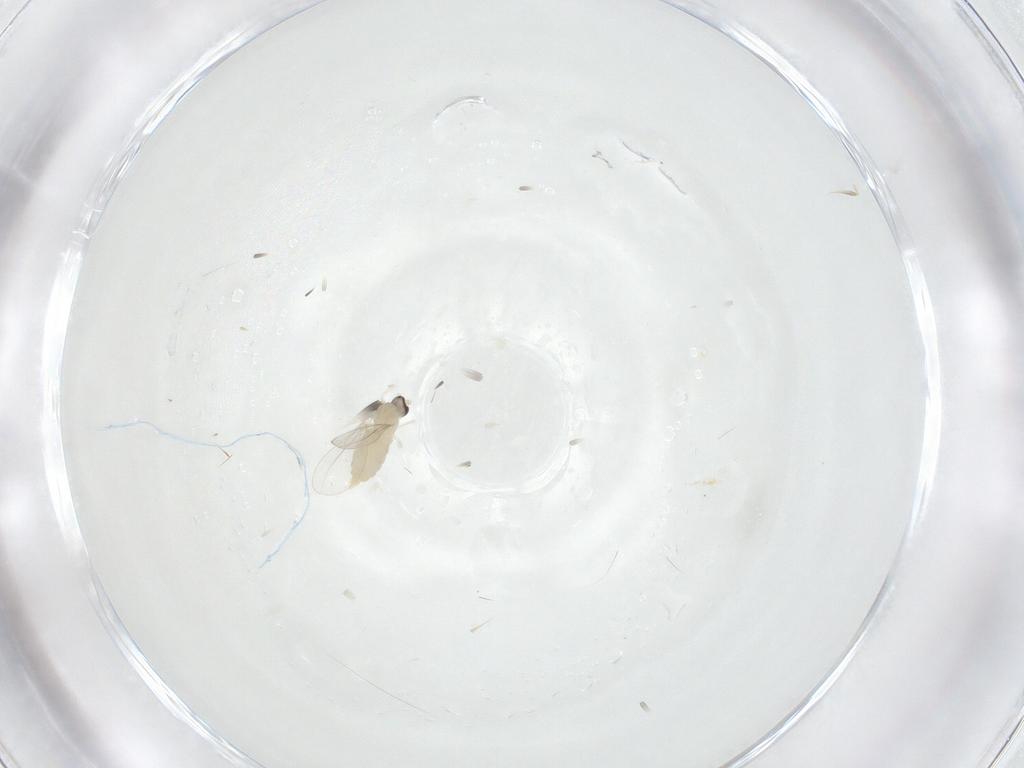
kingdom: Animalia
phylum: Arthropoda
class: Insecta
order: Diptera
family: Cecidomyiidae
